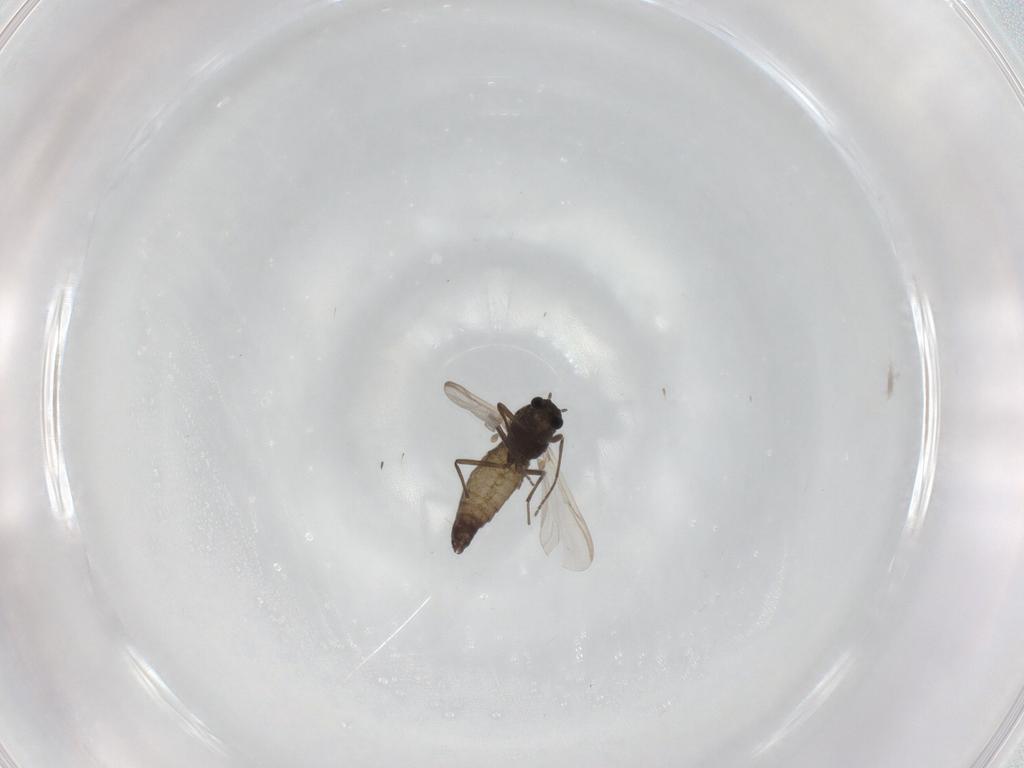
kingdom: Animalia
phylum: Arthropoda
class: Insecta
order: Diptera
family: Chironomidae
